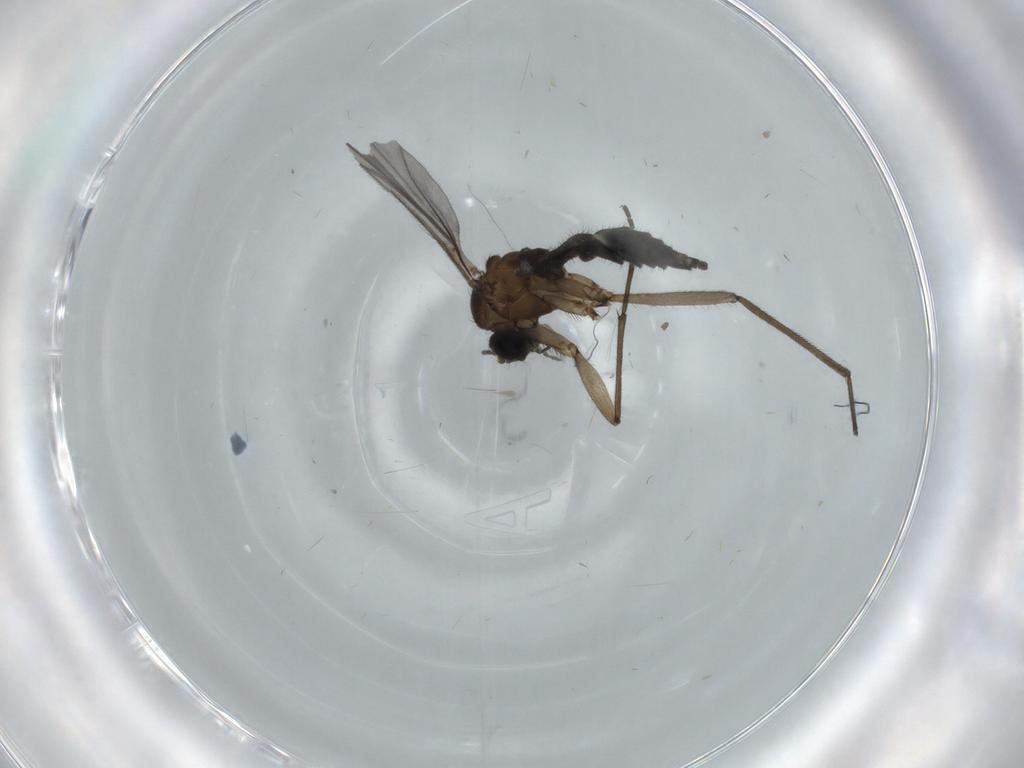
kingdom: Animalia
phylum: Arthropoda
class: Insecta
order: Diptera
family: Sciaridae
